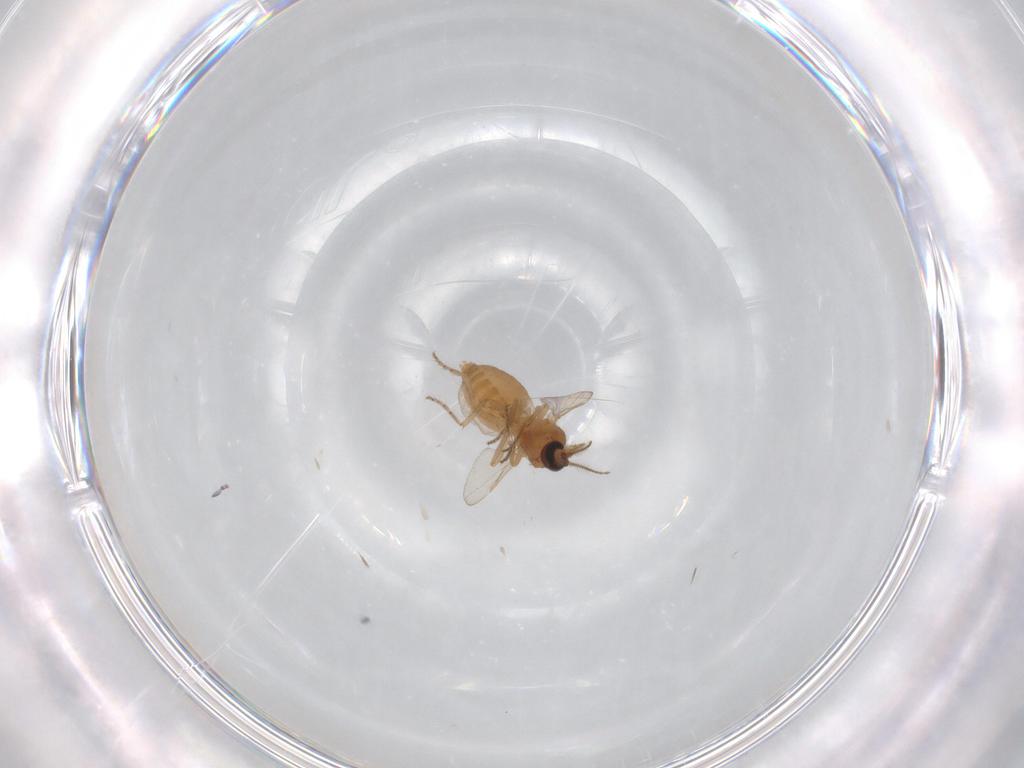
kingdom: Animalia
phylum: Arthropoda
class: Insecta
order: Diptera
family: Ceratopogonidae
